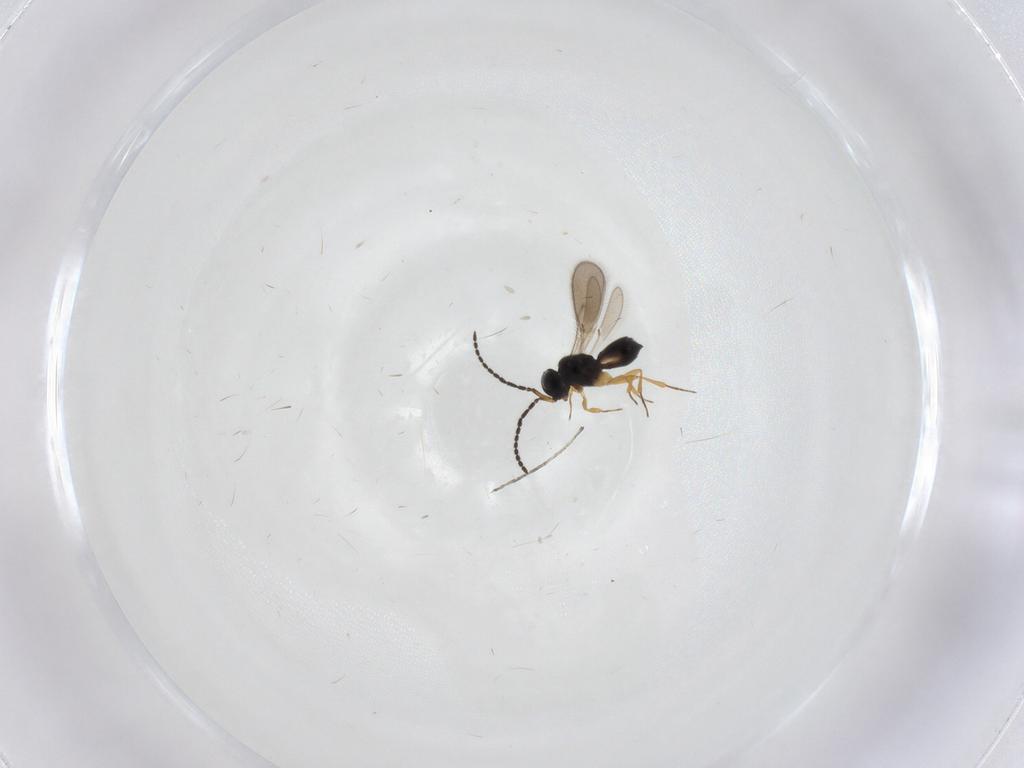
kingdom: Animalia
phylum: Arthropoda
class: Insecta
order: Hymenoptera
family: Scelionidae
